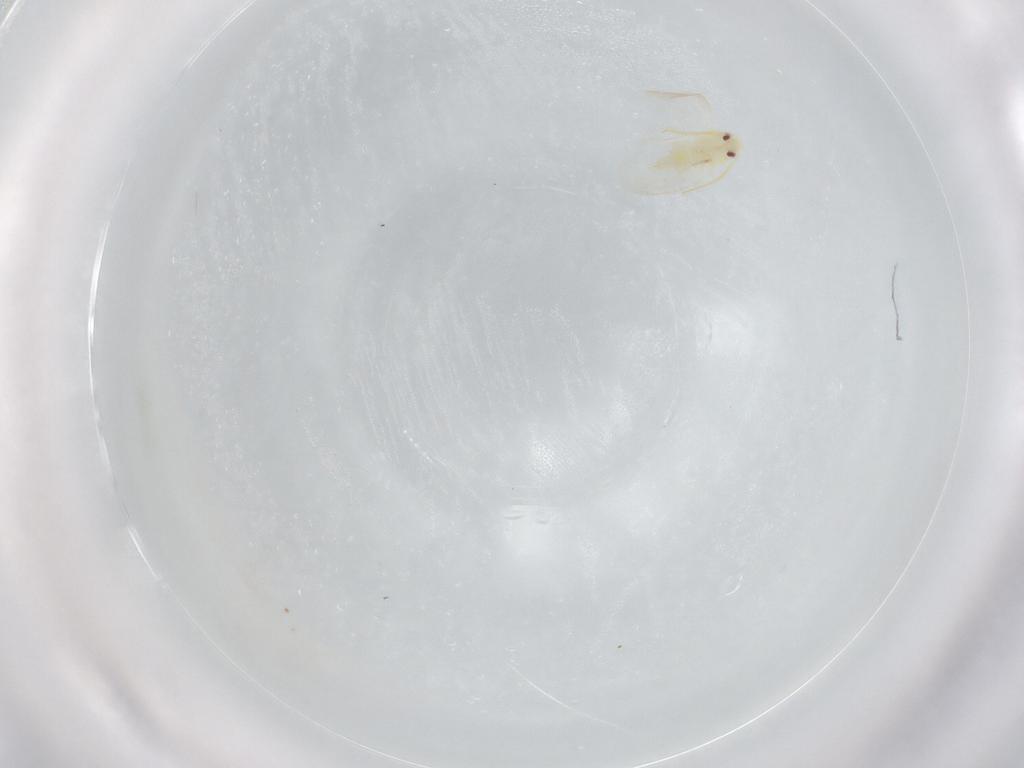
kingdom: Animalia
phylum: Arthropoda
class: Insecta
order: Hemiptera
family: Aleyrodidae
